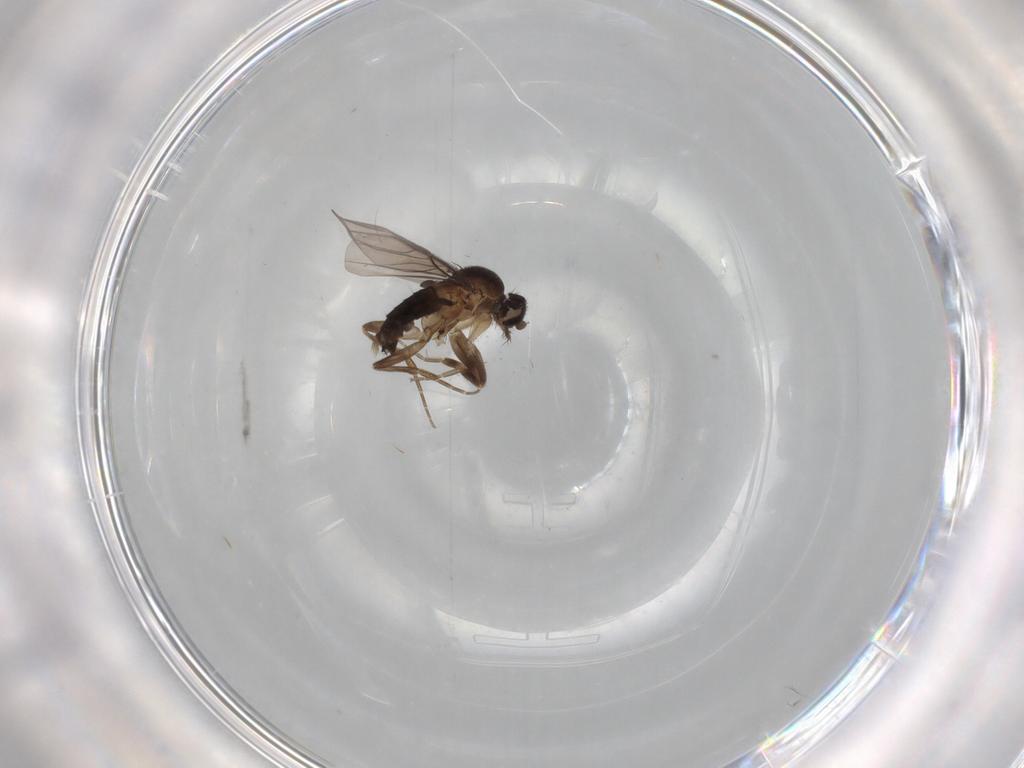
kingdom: Animalia
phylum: Arthropoda
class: Insecta
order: Diptera
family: Phoridae
